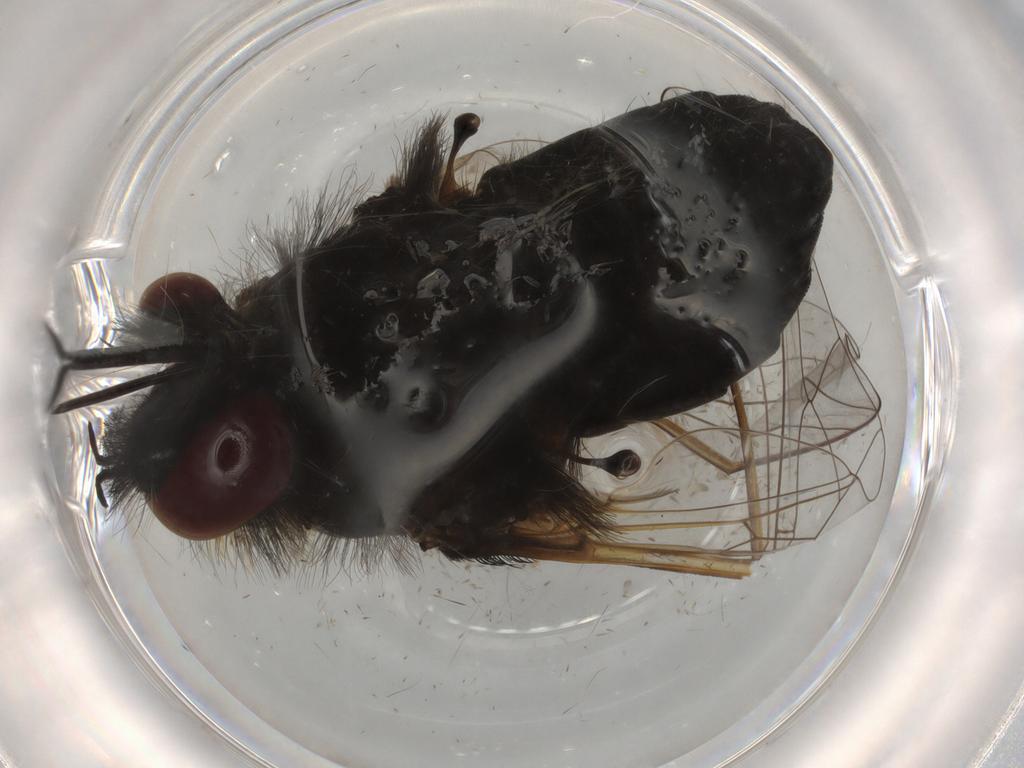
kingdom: Animalia
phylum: Arthropoda
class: Insecta
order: Diptera
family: Bombyliidae
